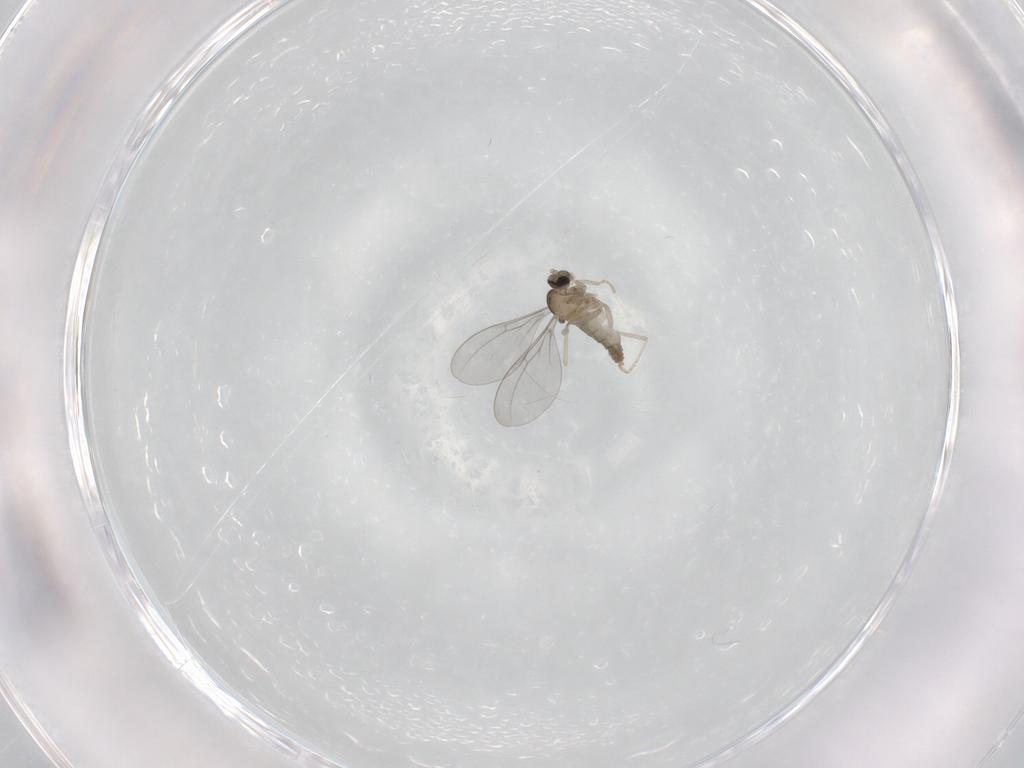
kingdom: Animalia
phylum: Arthropoda
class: Insecta
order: Diptera
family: Cecidomyiidae
